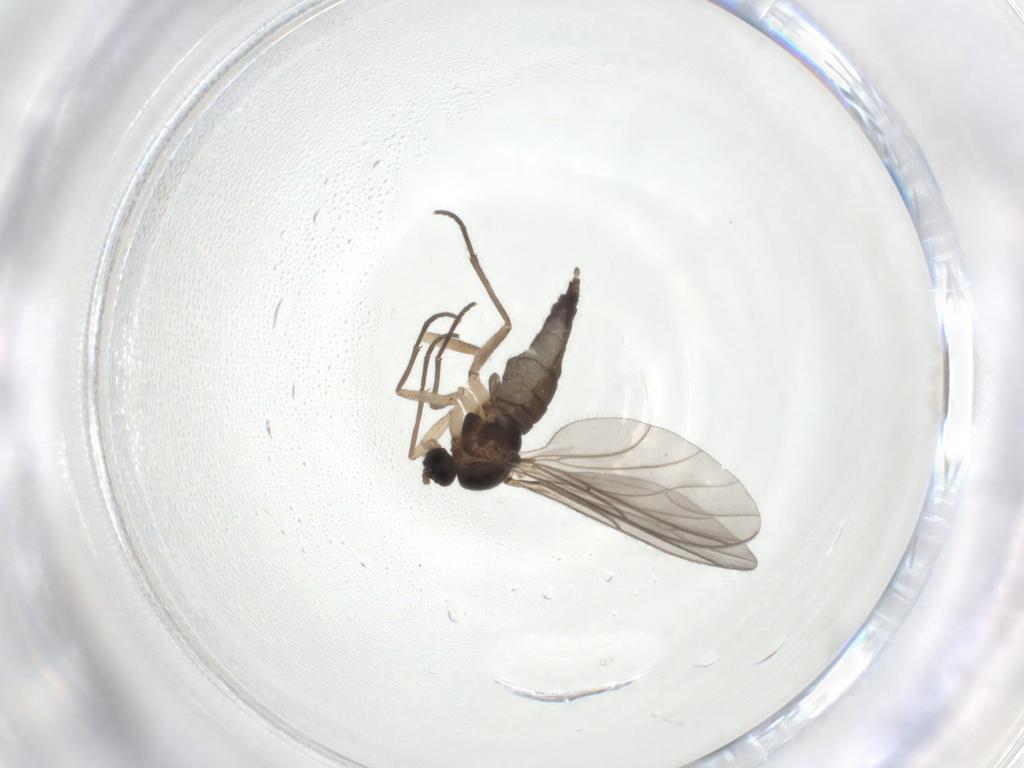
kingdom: Animalia
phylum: Arthropoda
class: Insecta
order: Diptera
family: Sciaridae
